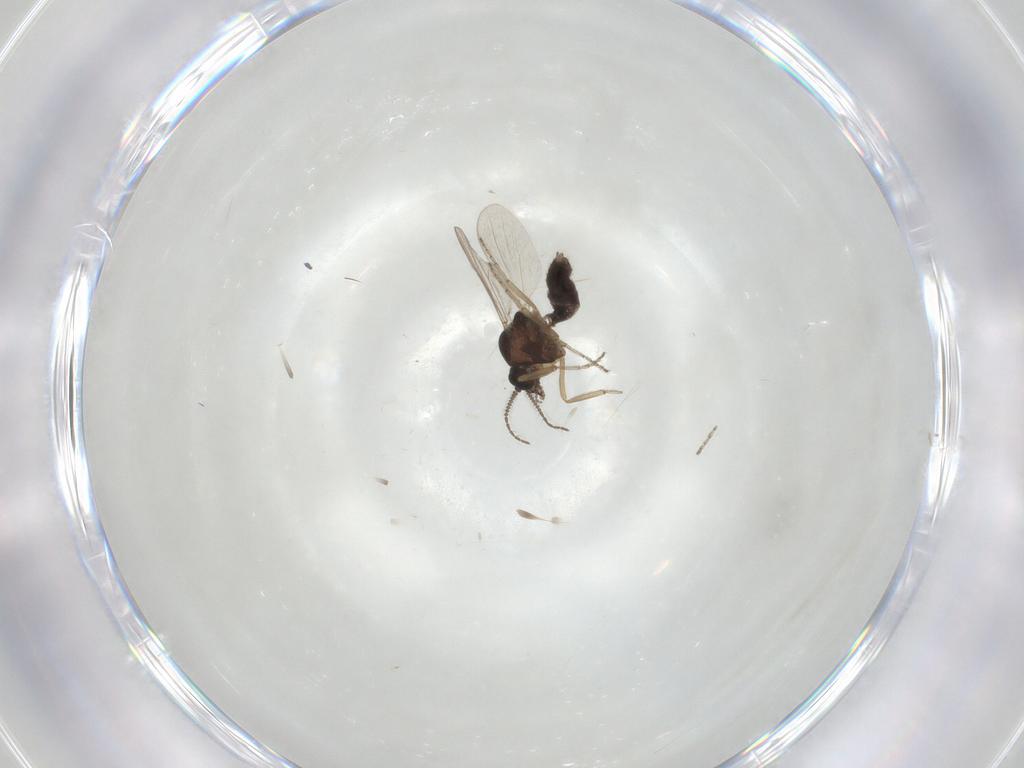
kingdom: Animalia
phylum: Arthropoda
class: Insecta
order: Diptera
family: Ceratopogonidae
